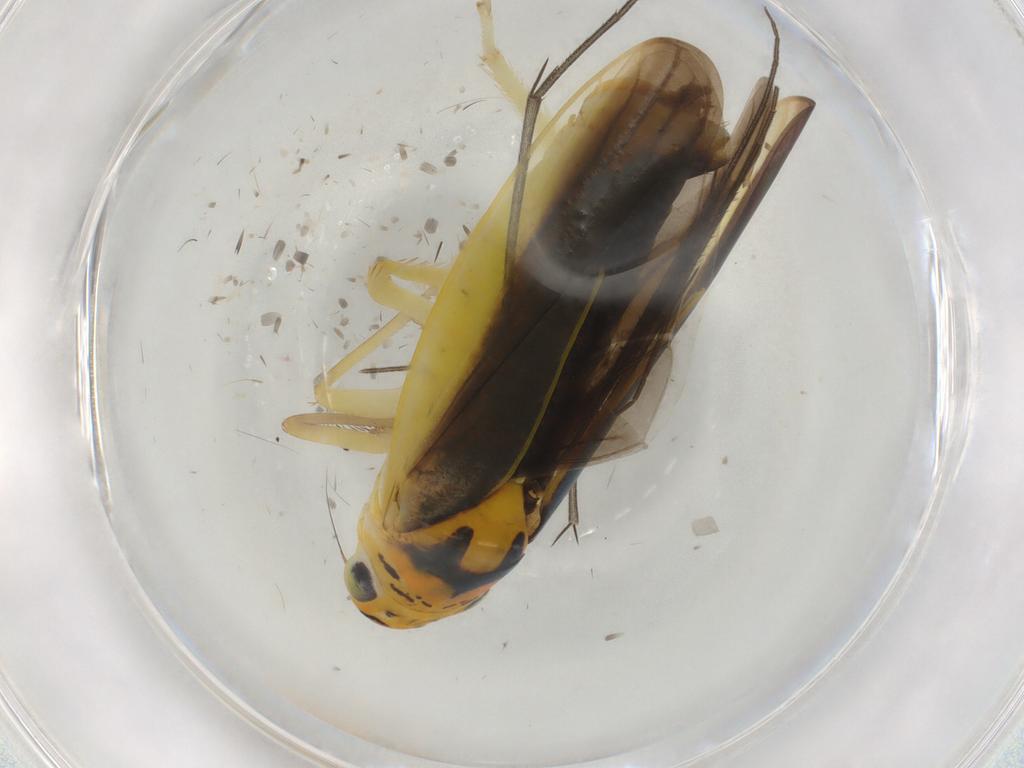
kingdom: Animalia
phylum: Arthropoda
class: Insecta
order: Hemiptera
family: Cicadellidae
